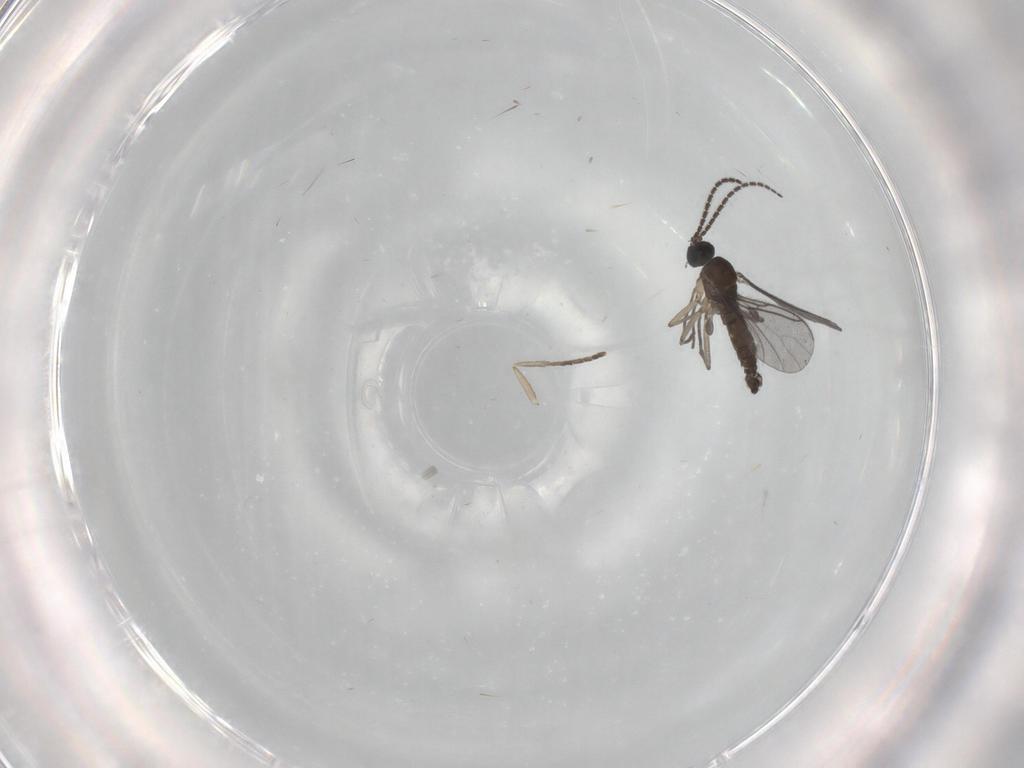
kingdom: Animalia
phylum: Arthropoda
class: Insecta
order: Diptera
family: Sciaridae
